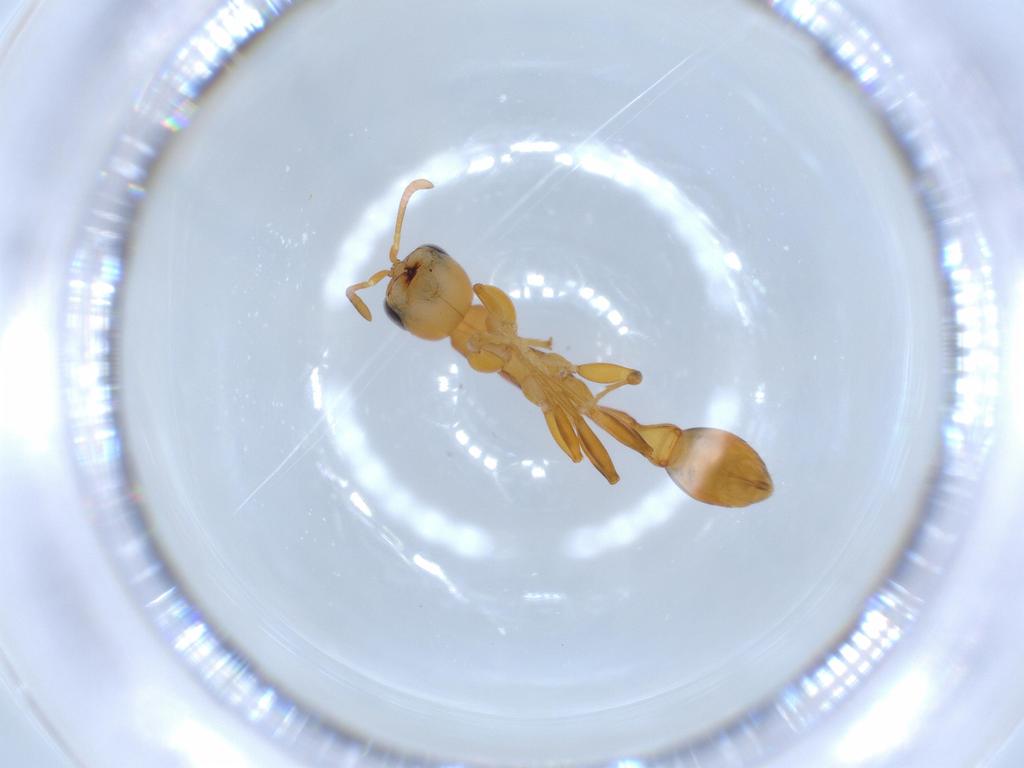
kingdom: Animalia
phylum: Arthropoda
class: Insecta
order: Hymenoptera
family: Formicidae
